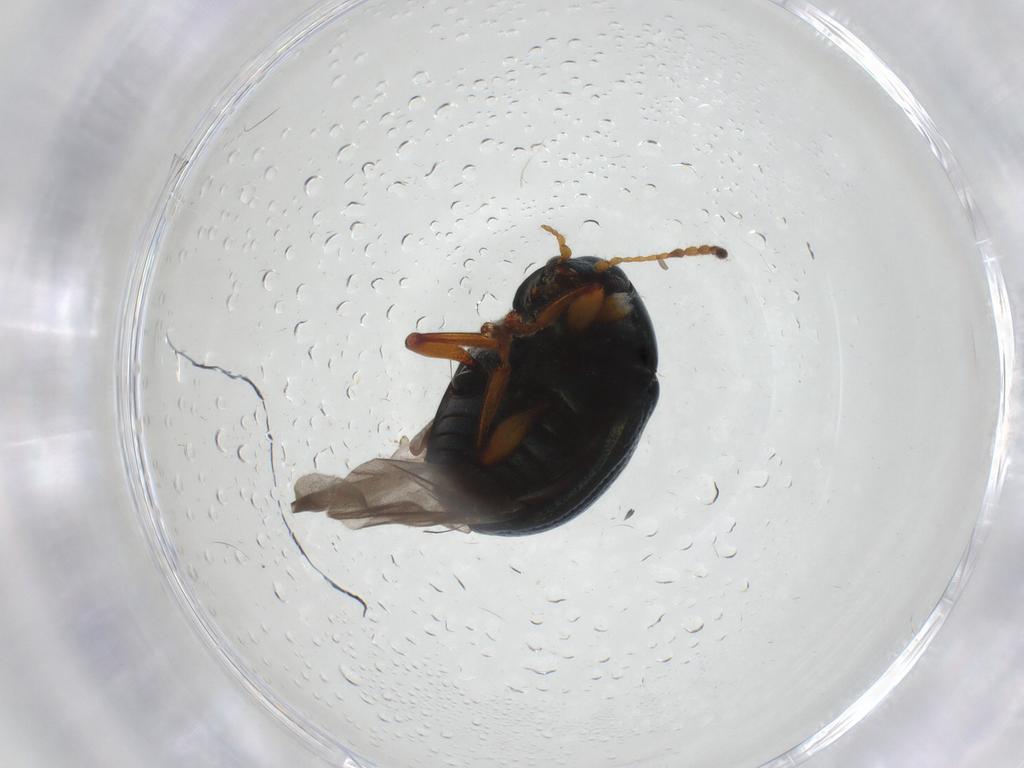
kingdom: Animalia
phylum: Arthropoda
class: Insecta
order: Coleoptera
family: Chrysomelidae
